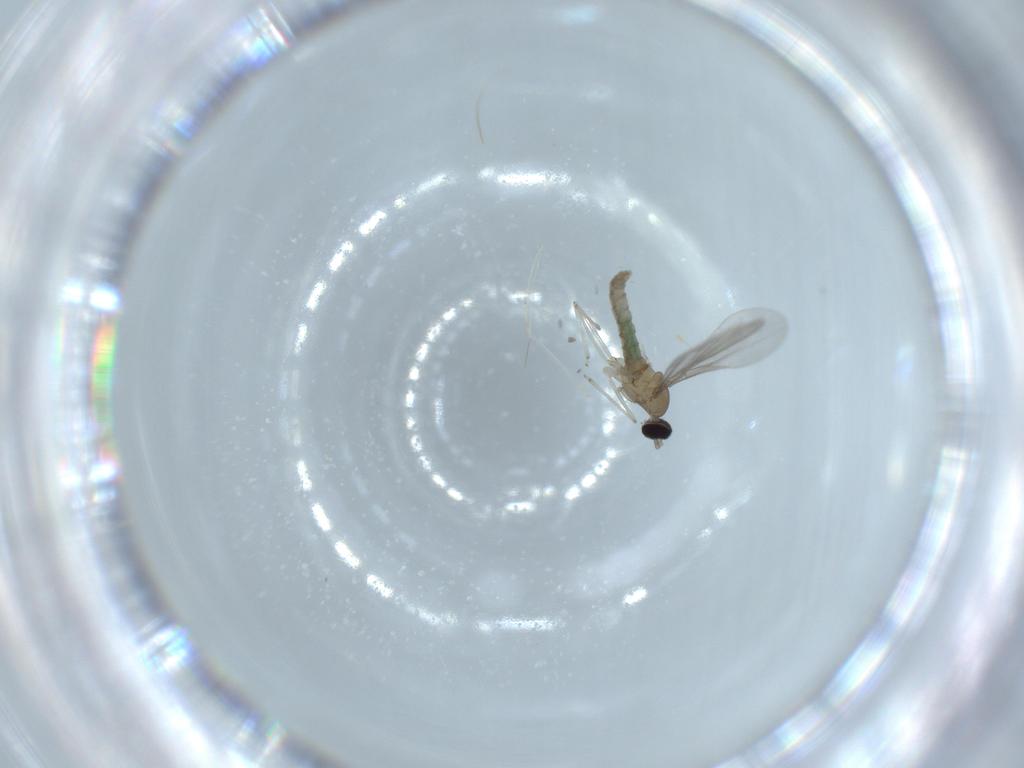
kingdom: Animalia
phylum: Arthropoda
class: Insecta
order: Diptera
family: Cecidomyiidae
